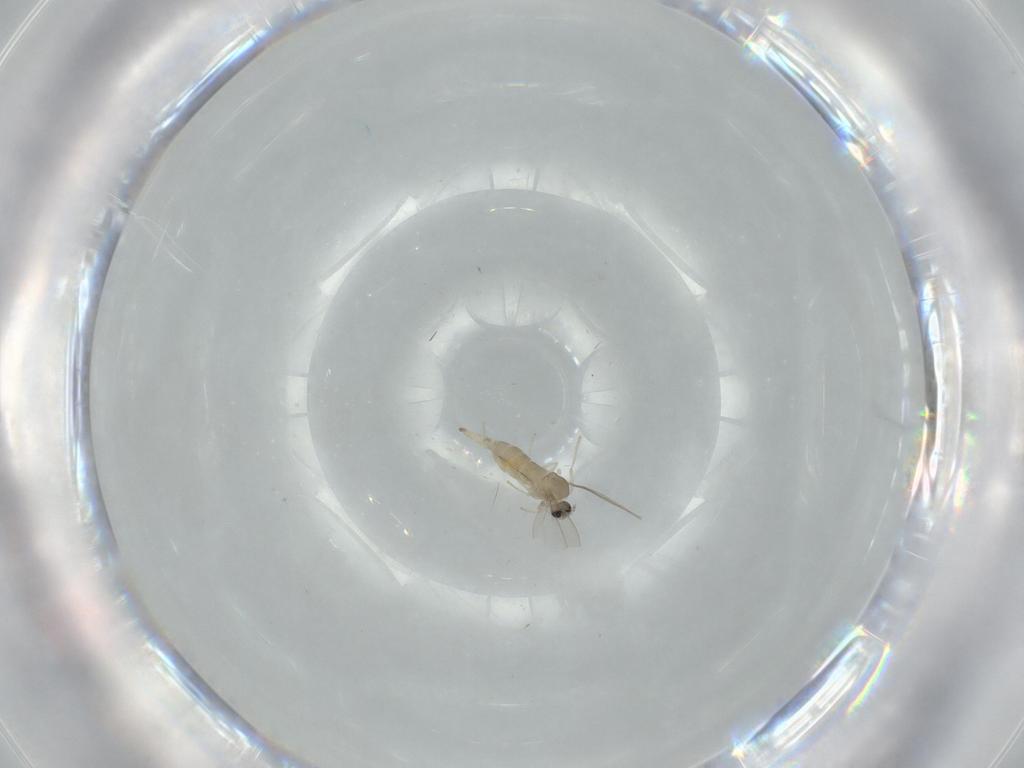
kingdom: Animalia
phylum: Arthropoda
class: Insecta
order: Diptera
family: Cecidomyiidae
